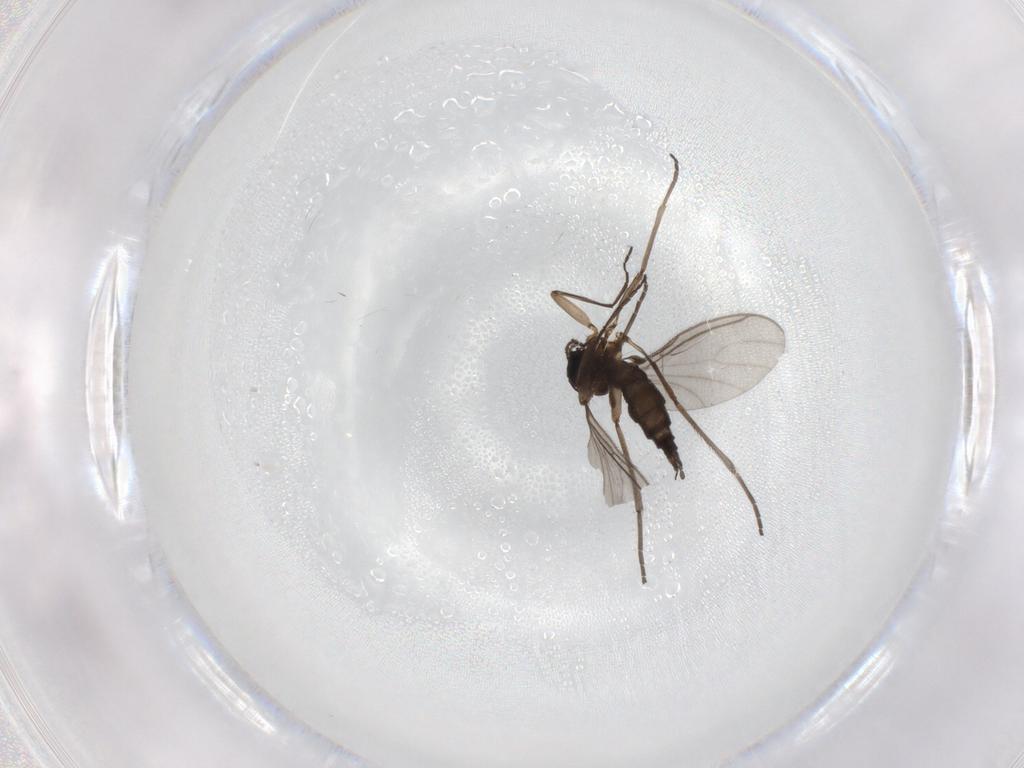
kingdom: Animalia
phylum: Arthropoda
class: Insecta
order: Diptera
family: Sciaridae
